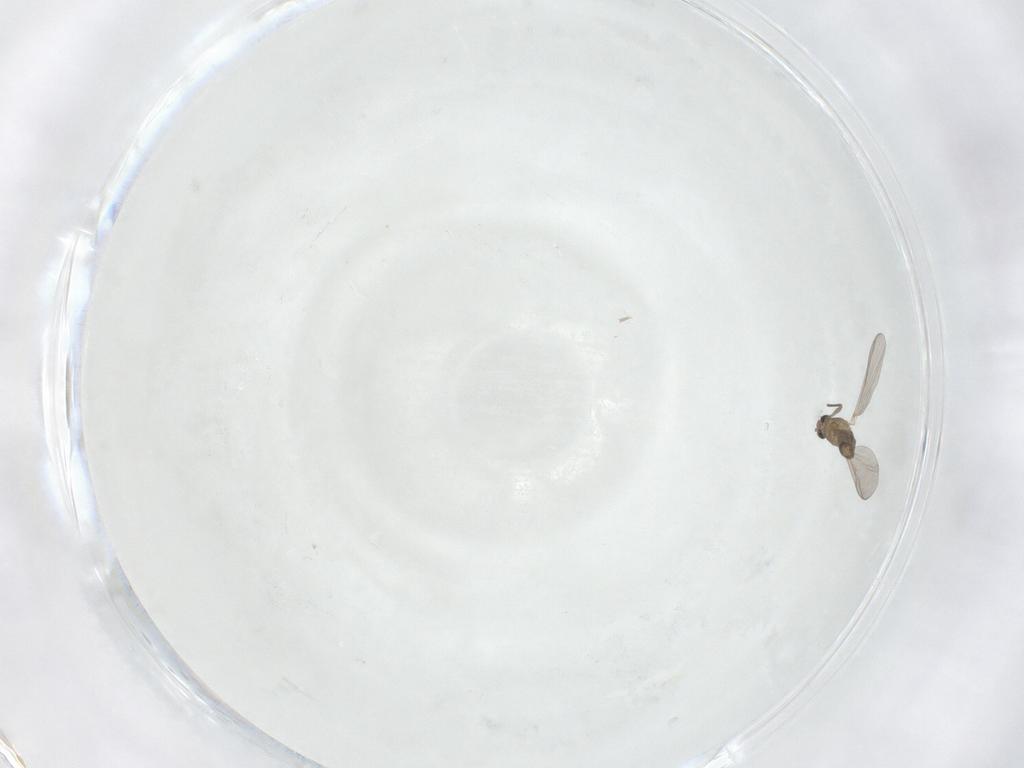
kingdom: Animalia
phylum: Arthropoda
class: Insecta
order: Diptera
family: Chironomidae
